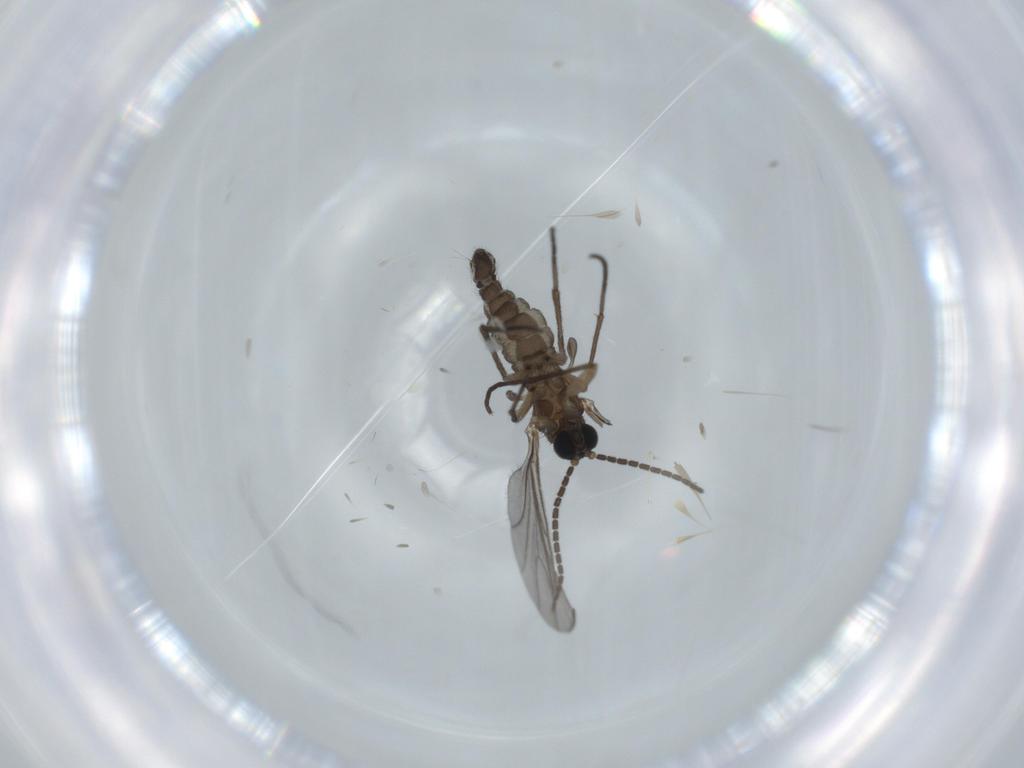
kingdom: Animalia
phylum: Arthropoda
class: Insecta
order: Diptera
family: Sciaridae
